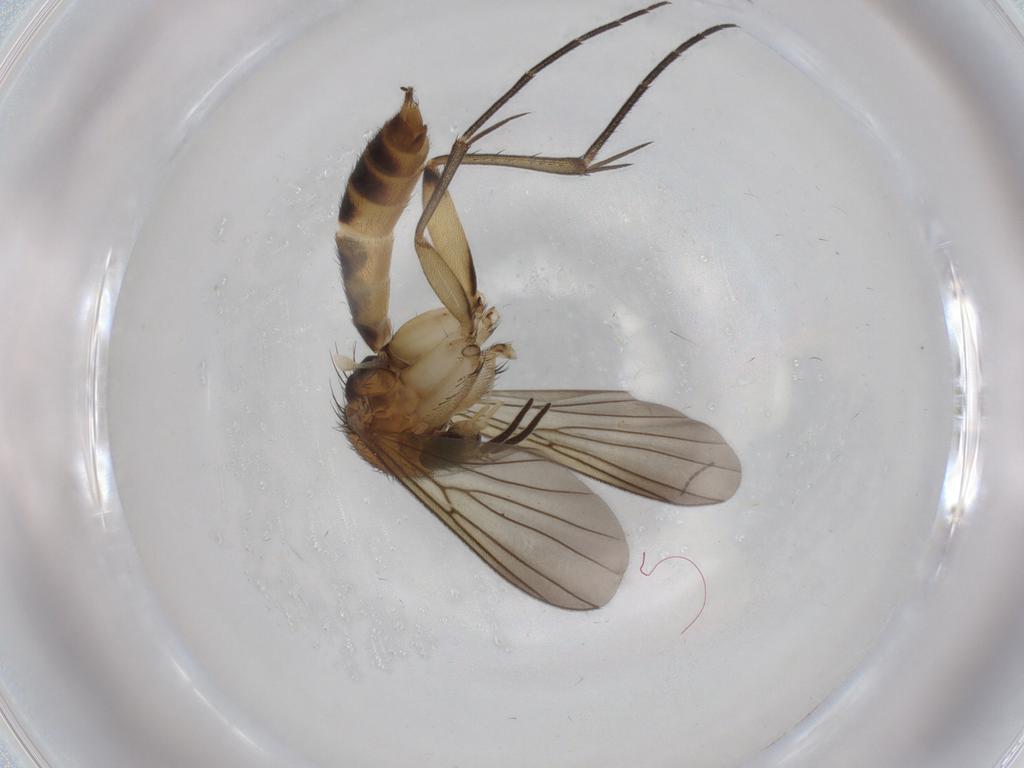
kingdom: Animalia
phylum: Arthropoda
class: Insecta
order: Diptera
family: Mycetophilidae
